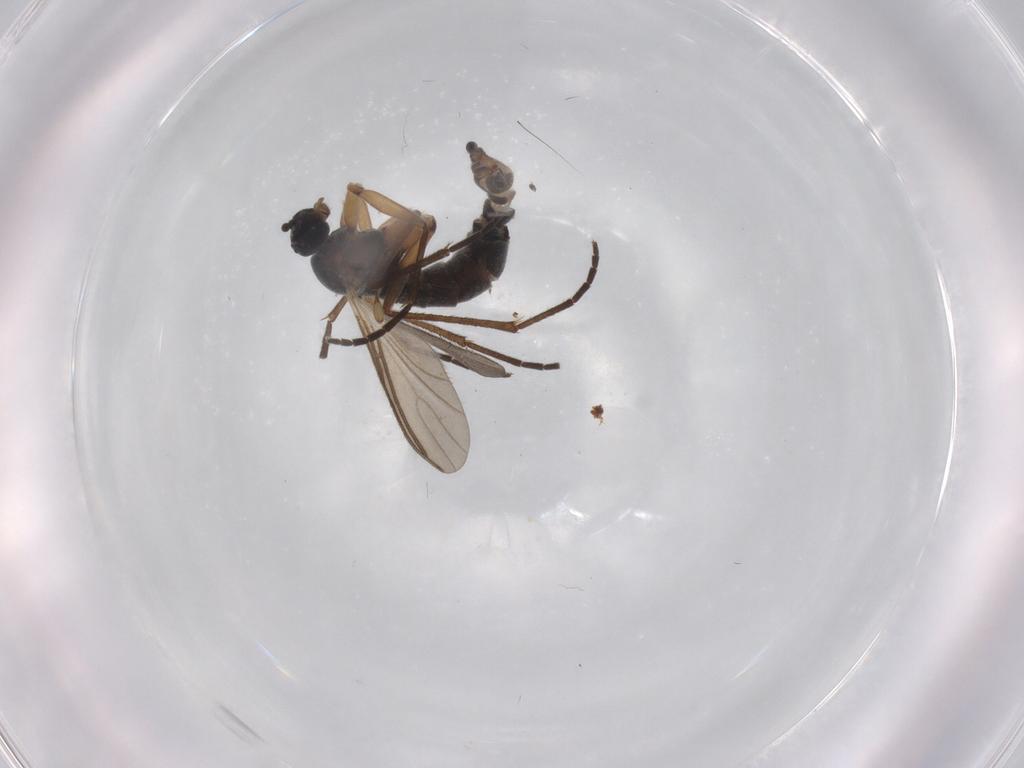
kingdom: Animalia
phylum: Arthropoda
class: Insecta
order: Diptera
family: Sciaridae
